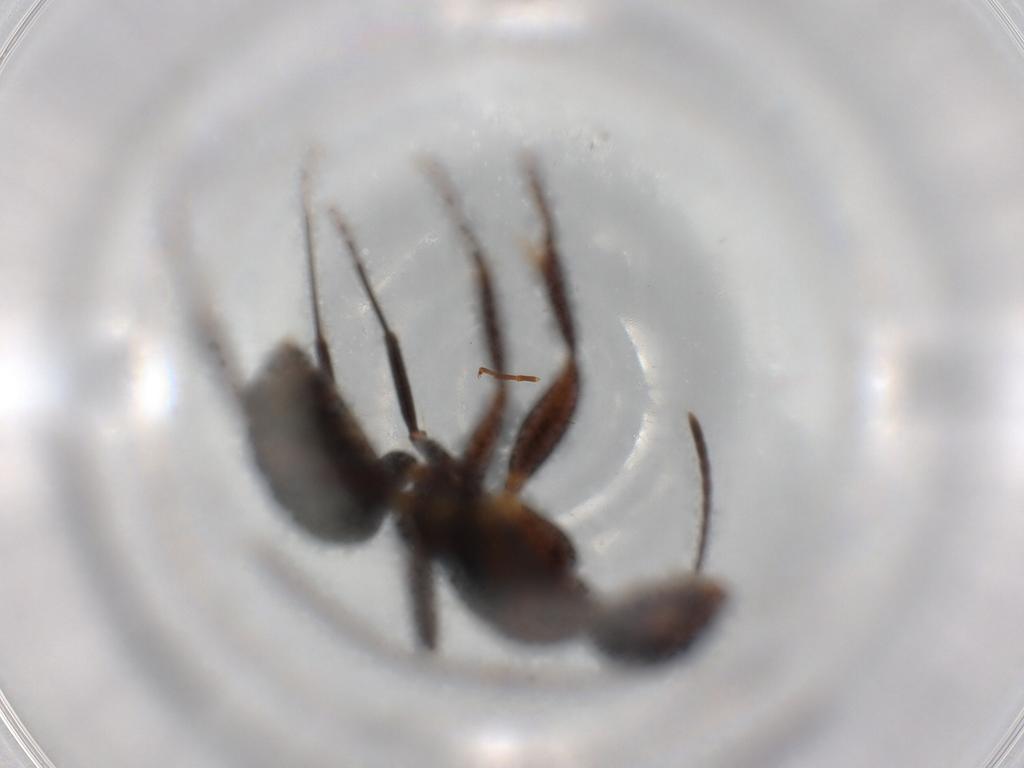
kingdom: Animalia
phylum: Arthropoda
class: Insecta
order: Hymenoptera
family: Formicidae
